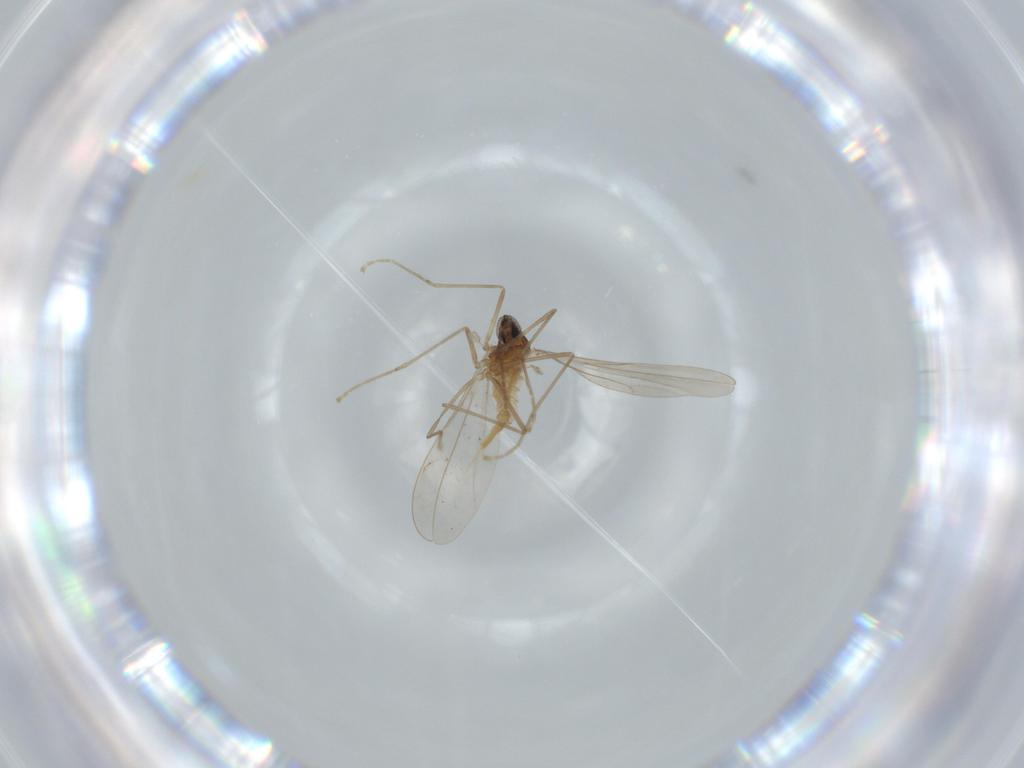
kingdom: Animalia
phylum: Arthropoda
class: Insecta
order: Diptera
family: Cecidomyiidae
